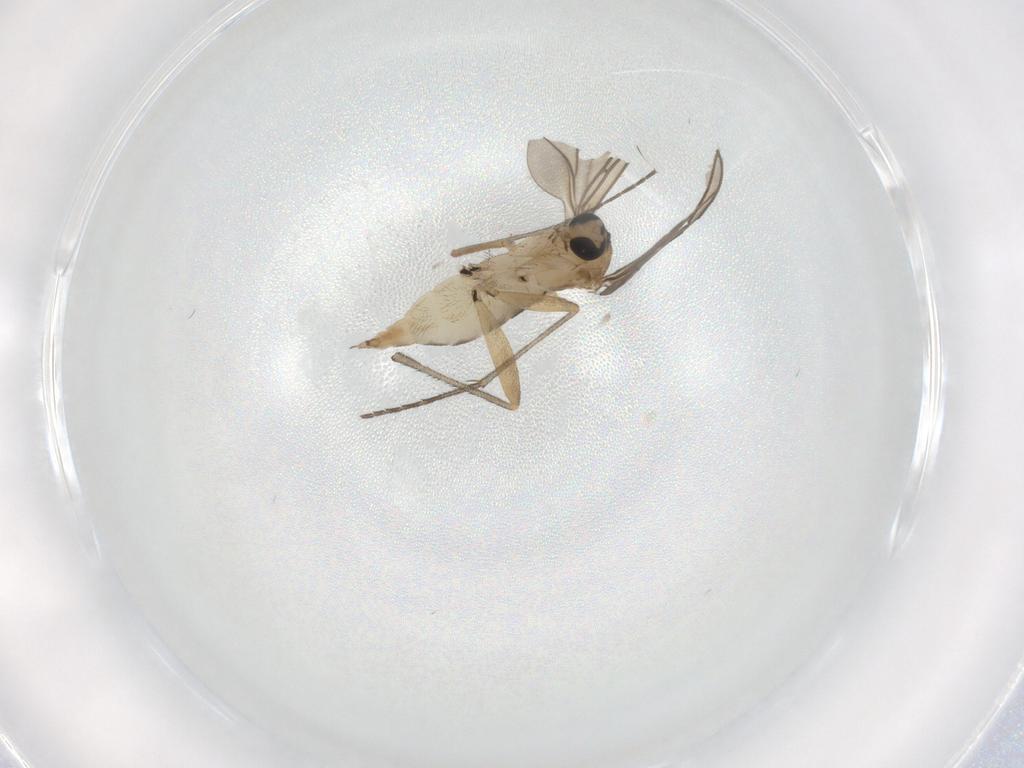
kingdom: Animalia
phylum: Arthropoda
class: Insecta
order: Diptera
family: Sciaridae
